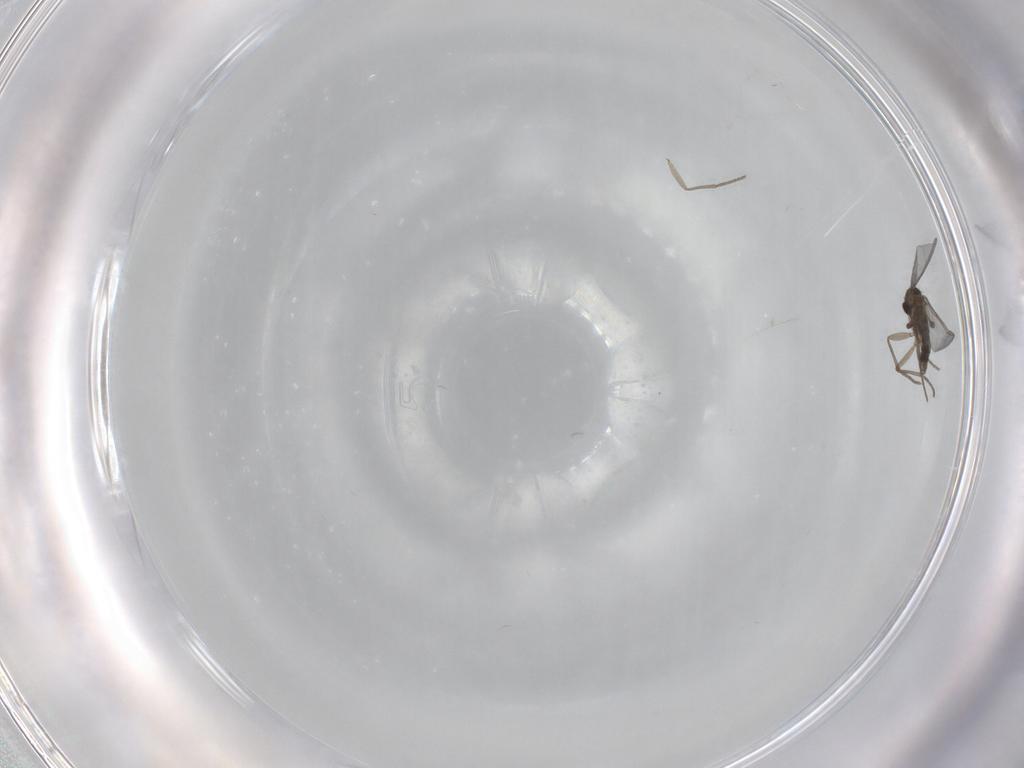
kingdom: Animalia
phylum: Arthropoda
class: Insecta
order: Diptera
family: Sciaridae
